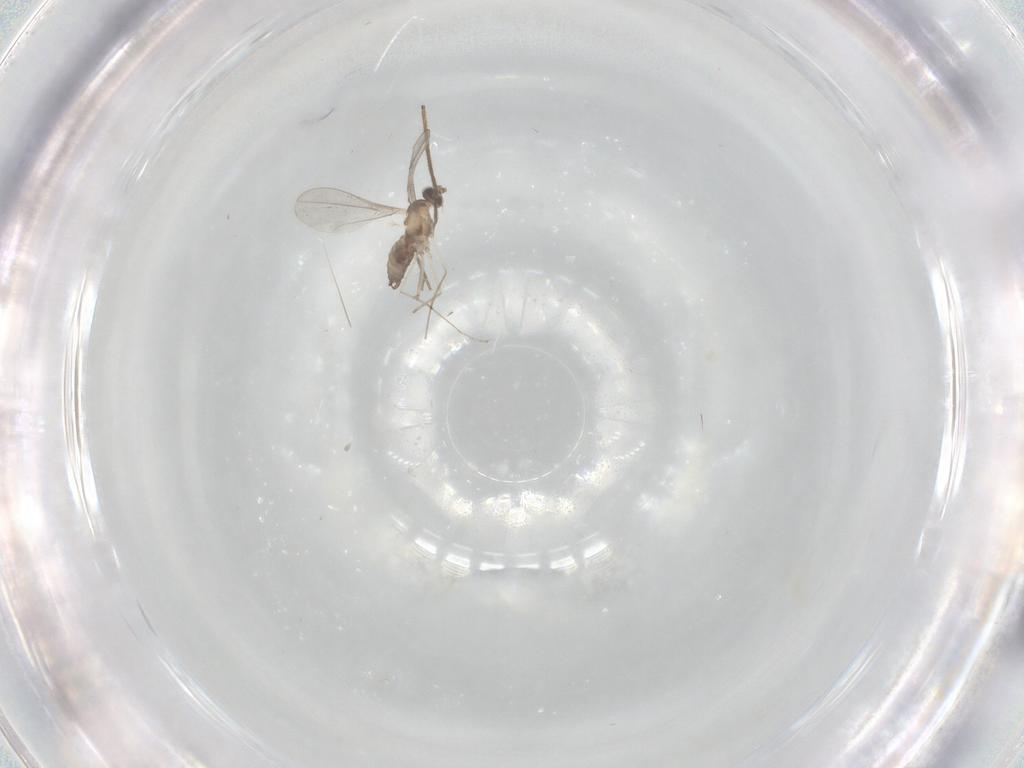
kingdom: Animalia
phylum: Arthropoda
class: Insecta
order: Diptera
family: Cecidomyiidae
